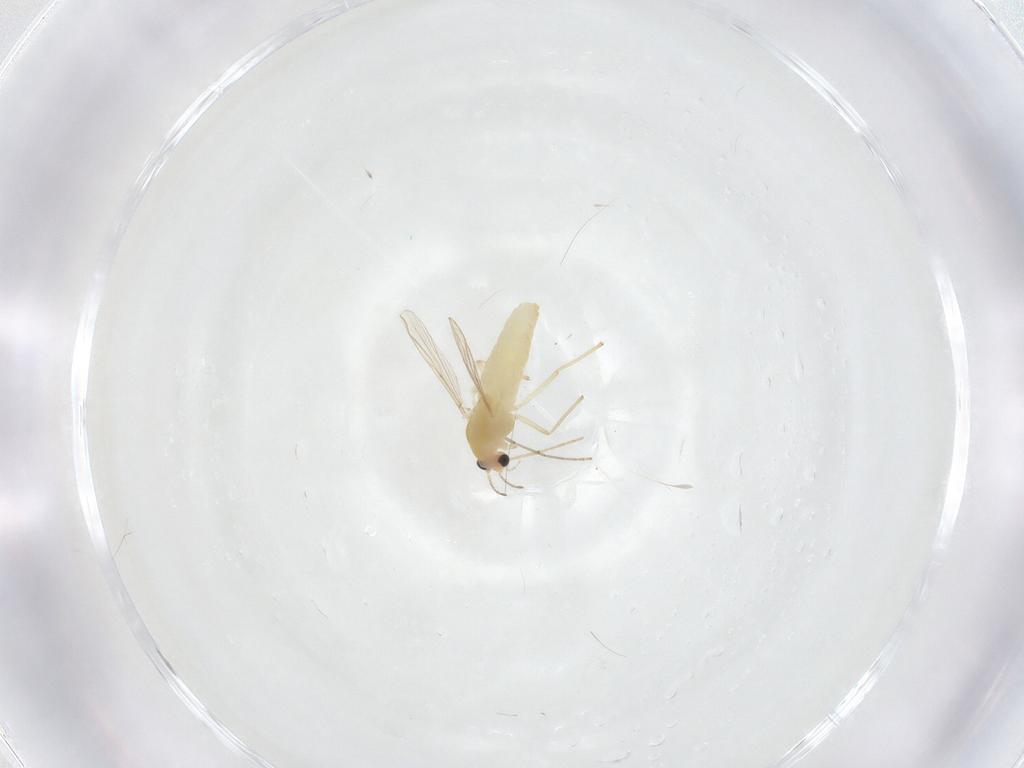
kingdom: Animalia
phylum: Arthropoda
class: Insecta
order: Diptera
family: Chironomidae
